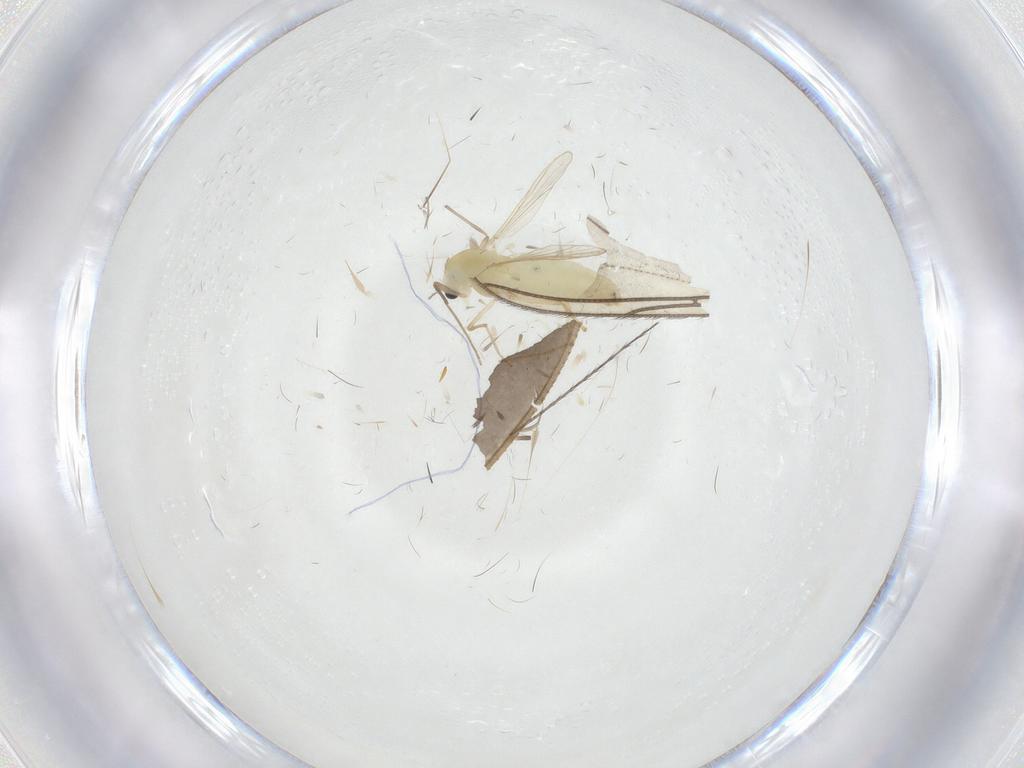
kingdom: Animalia
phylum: Arthropoda
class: Insecta
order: Diptera
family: Chironomidae
